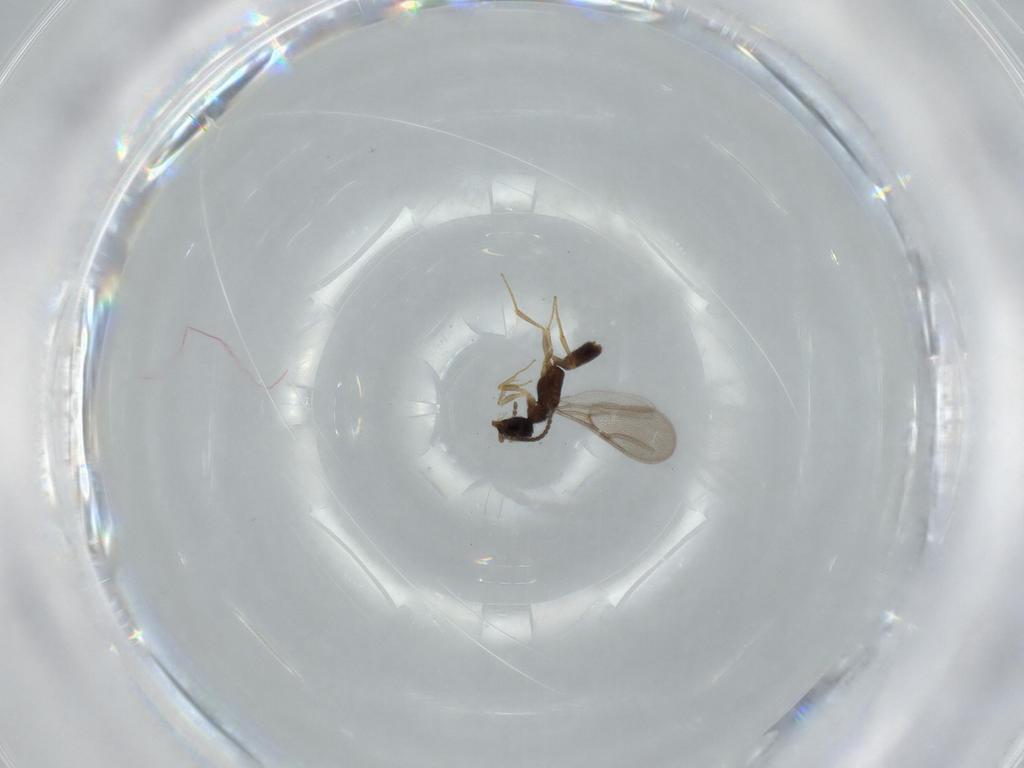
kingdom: Animalia
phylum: Arthropoda
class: Insecta
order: Hymenoptera
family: Bethylidae
